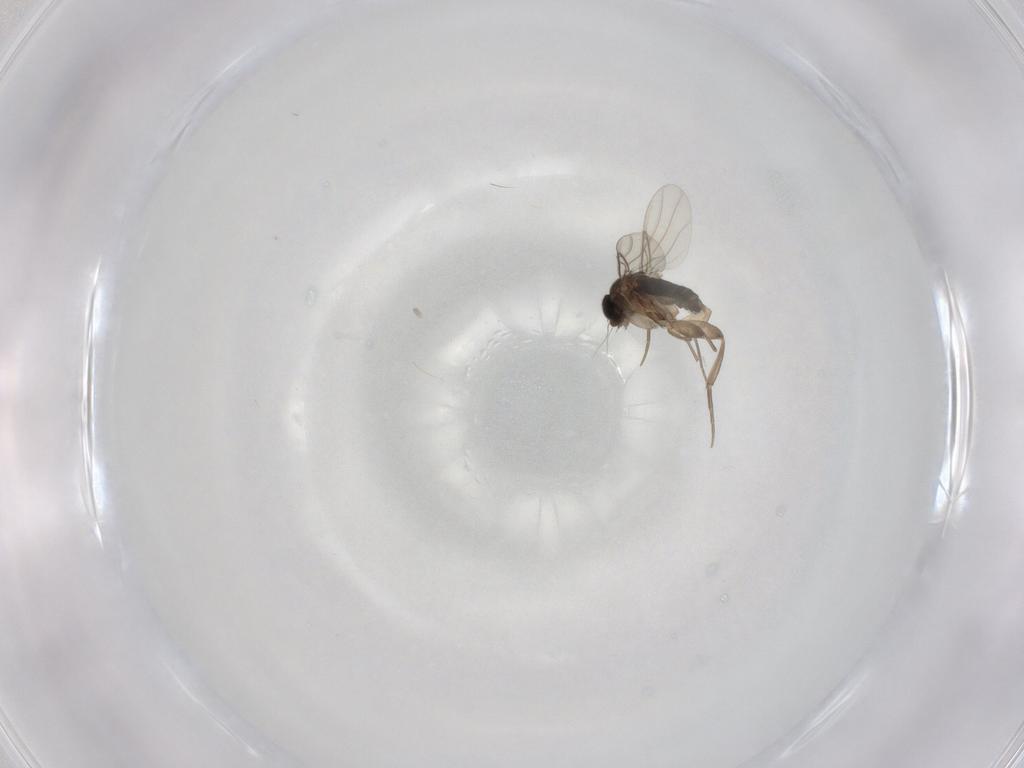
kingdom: Animalia
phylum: Arthropoda
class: Insecta
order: Diptera
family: Phoridae
